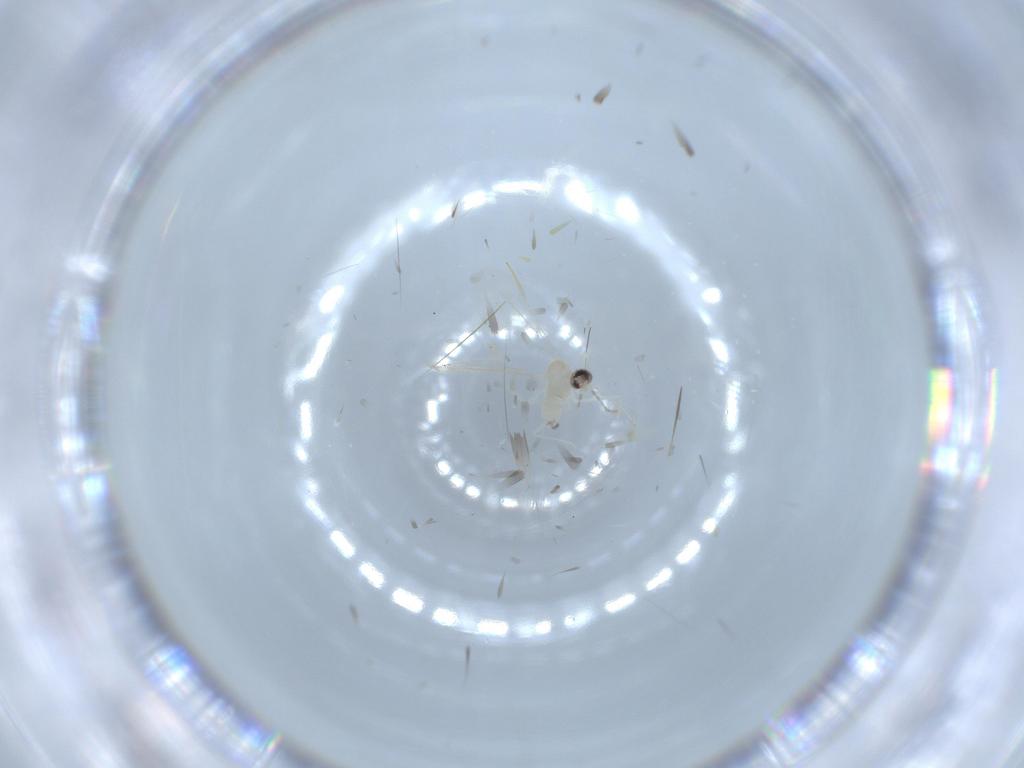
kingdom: Animalia
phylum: Arthropoda
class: Insecta
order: Diptera
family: Cecidomyiidae
